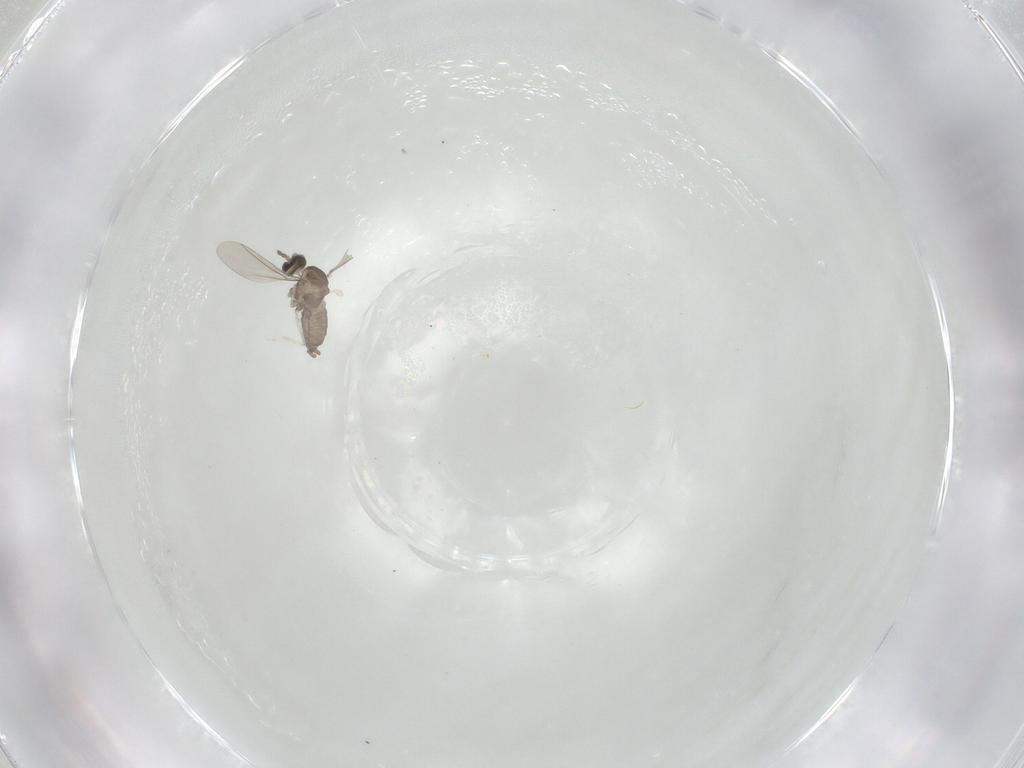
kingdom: Animalia
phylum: Arthropoda
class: Insecta
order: Diptera
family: Cecidomyiidae
